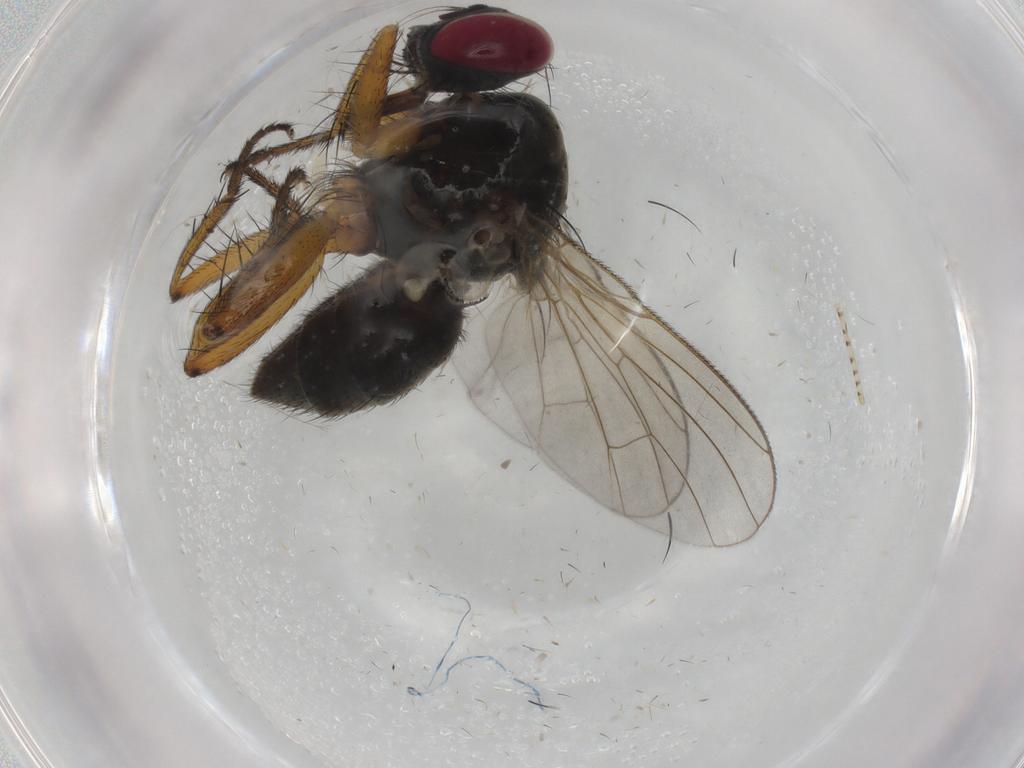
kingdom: Animalia
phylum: Arthropoda
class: Insecta
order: Diptera
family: Muscidae
